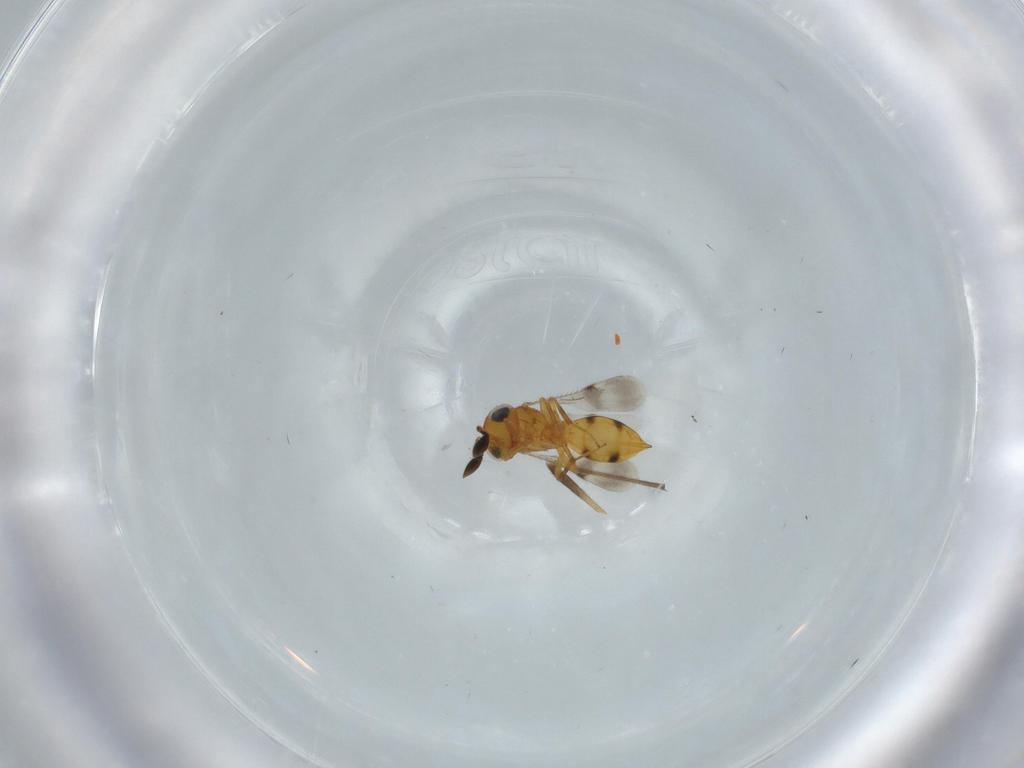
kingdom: Animalia
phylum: Arthropoda
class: Insecta
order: Hymenoptera
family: Scelionidae
